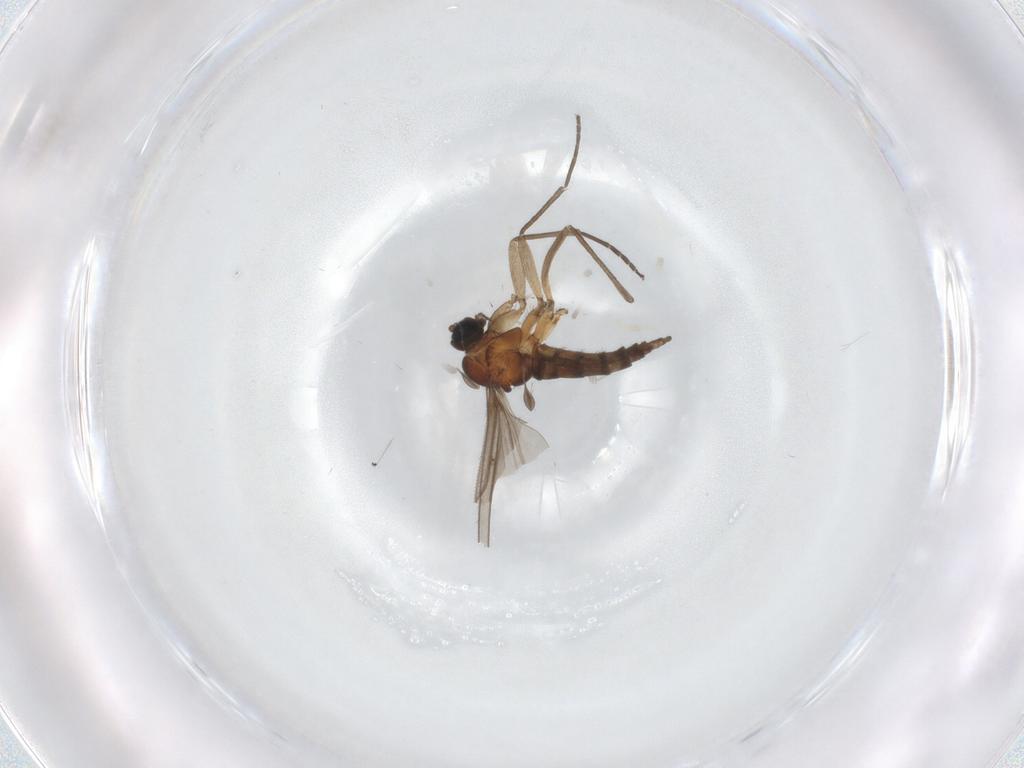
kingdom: Animalia
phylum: Arthropoda
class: Insecta
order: Diptera
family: Sciaridae
